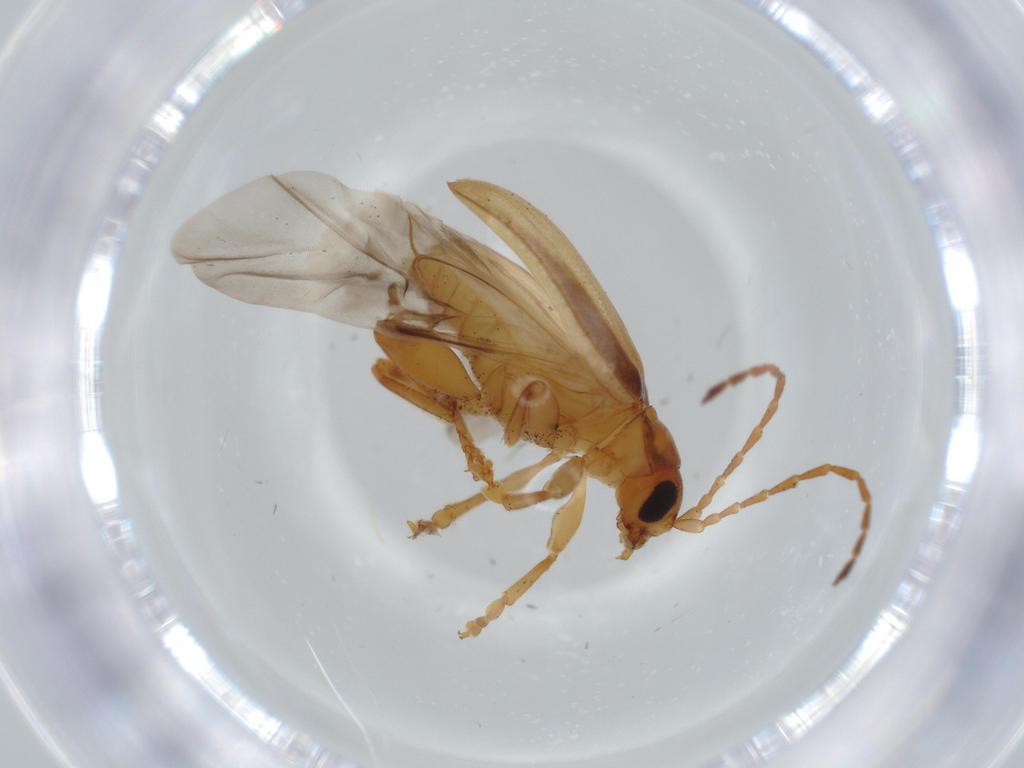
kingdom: Animalia
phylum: Arthropoda
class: Insecta
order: Coleoptera
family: Chrysomelidae
